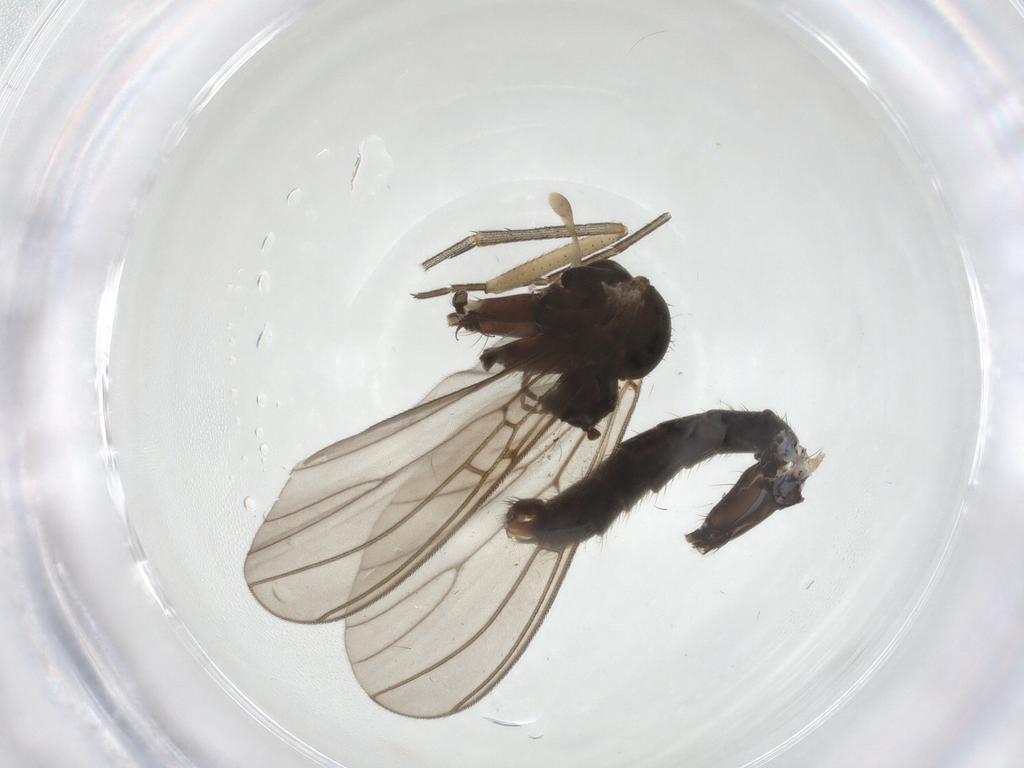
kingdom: Animalia
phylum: Arthropoda
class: Insecta
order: Diptera
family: Mycetophilidae
